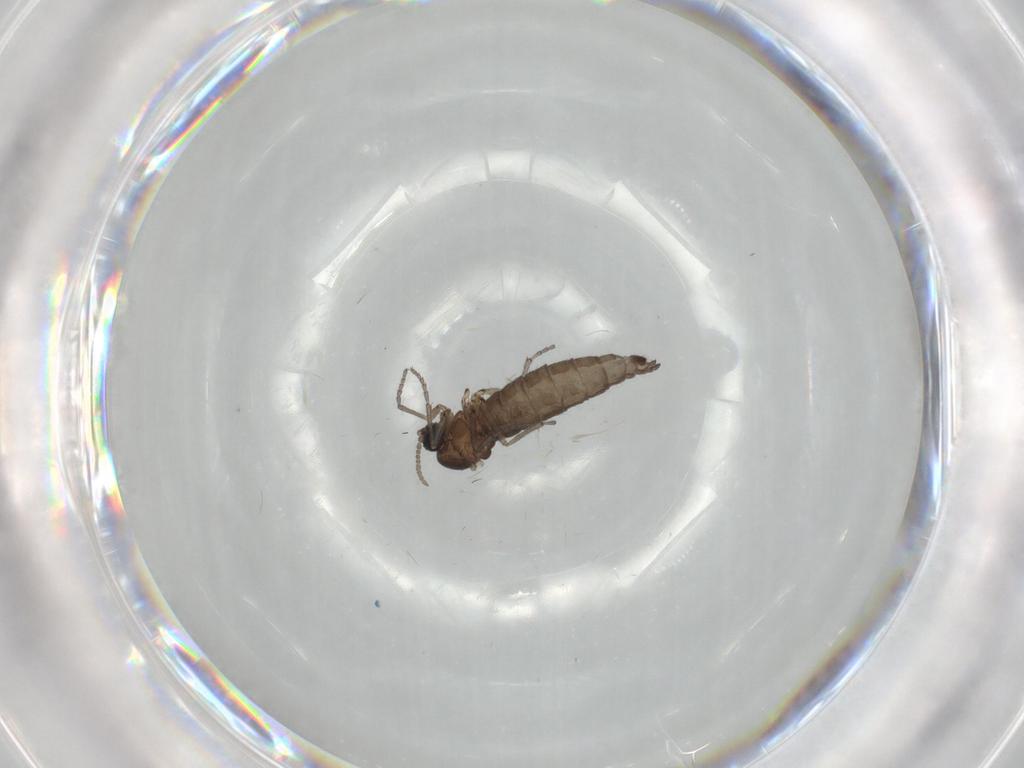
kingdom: Animalia
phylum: Arthropoda
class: Insecta
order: Diptera
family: Sciaridae
